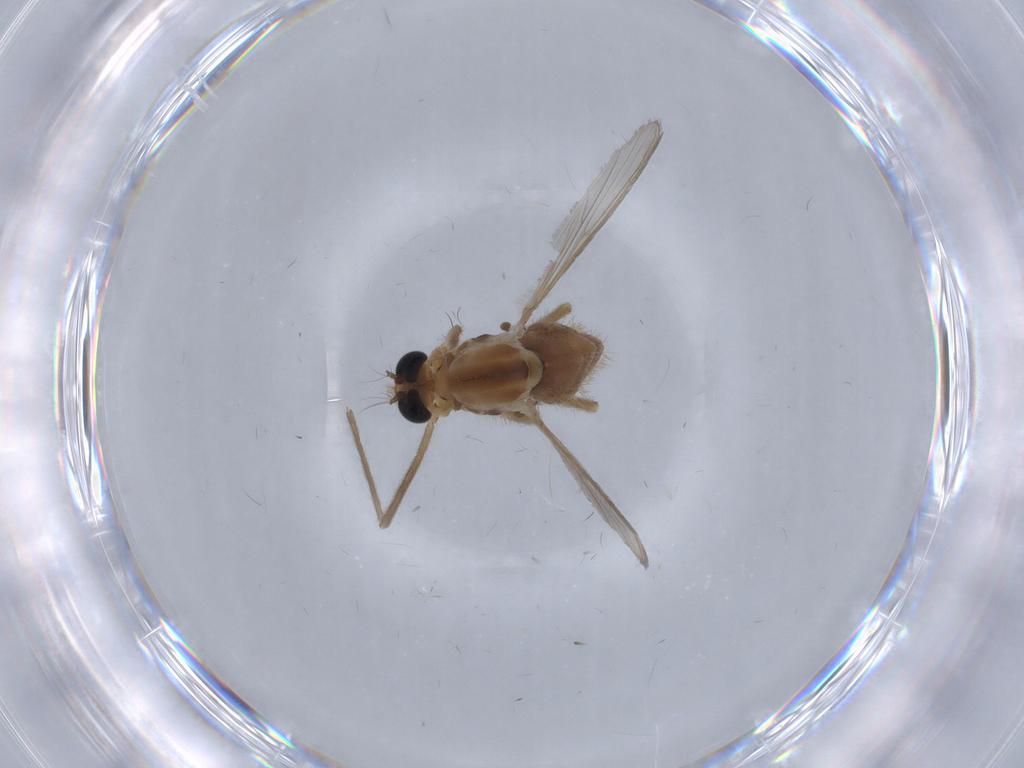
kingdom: Animalia
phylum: Arthropoda
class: Insecta
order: Diptera
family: Chironomidae
